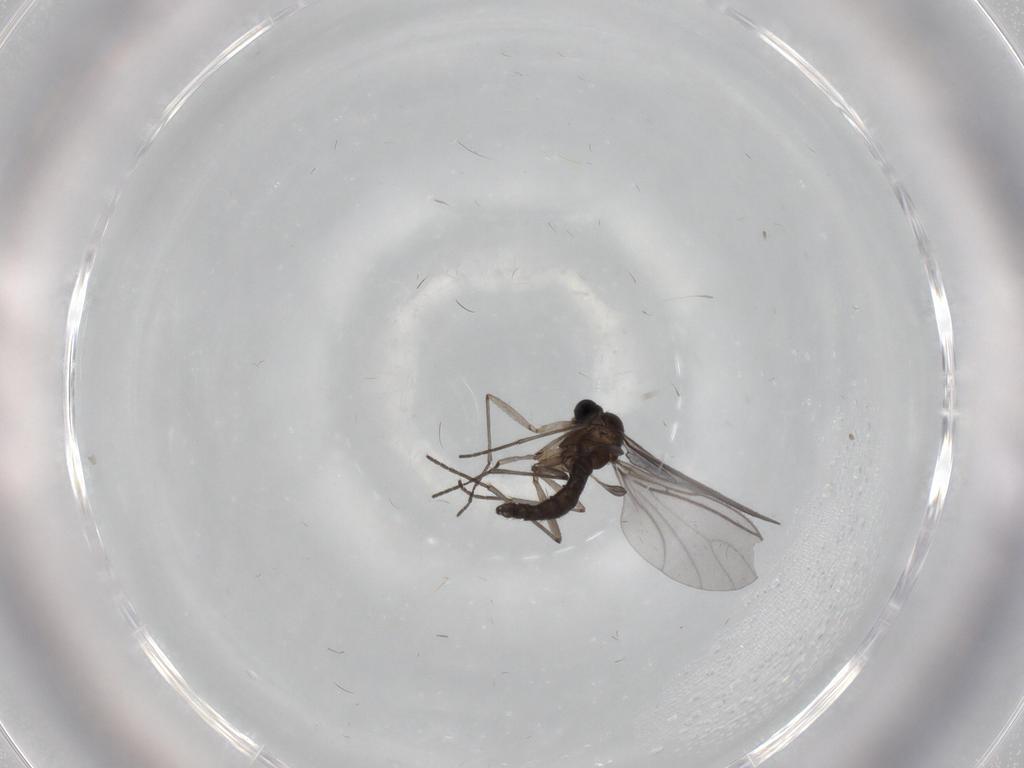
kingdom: Animalia
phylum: Arthropoda
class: Insecta
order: Diptera
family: Sciaridae
